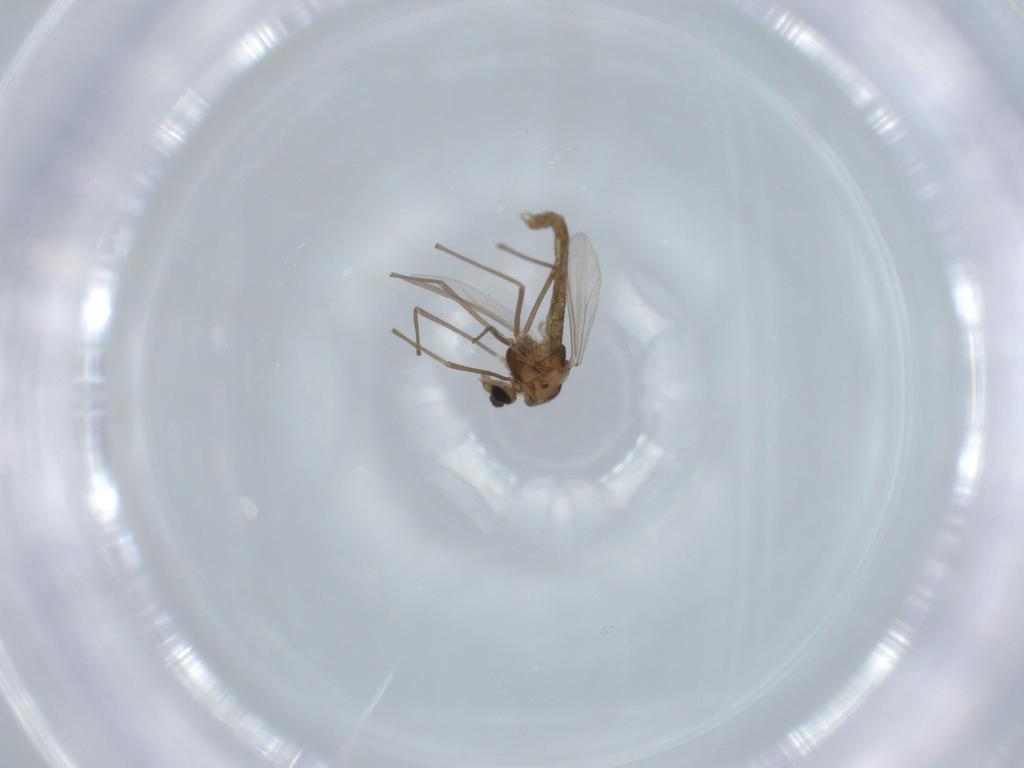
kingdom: Animalia
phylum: Arthropoda
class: Insecta
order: Diptera
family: Chironomidae
